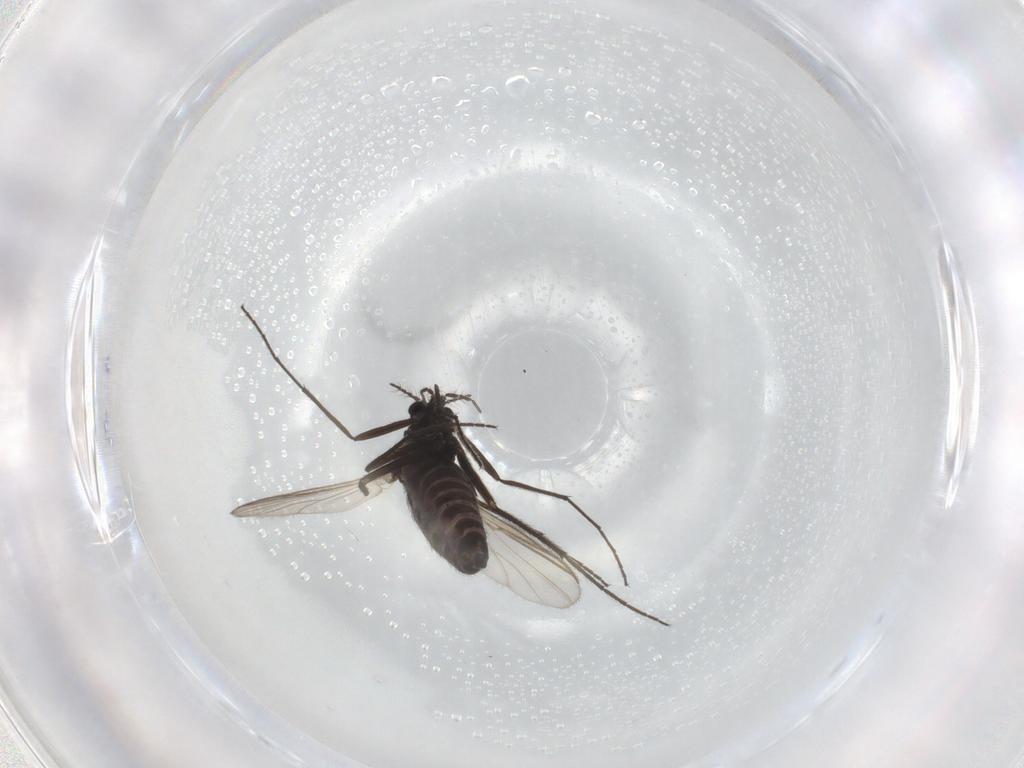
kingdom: Animalia
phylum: Arthropoda
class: Insecta
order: Diptera
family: Chironomidae
